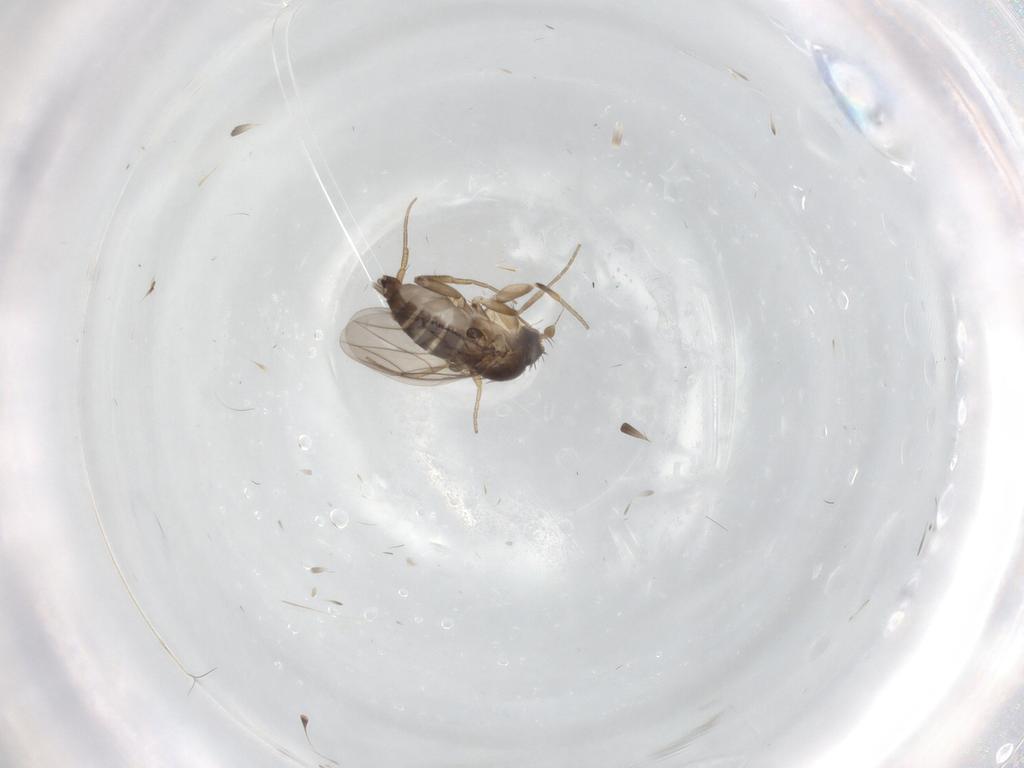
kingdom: Animalia
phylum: Arthropoda
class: Insecta
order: Diptera
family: Phoridae
